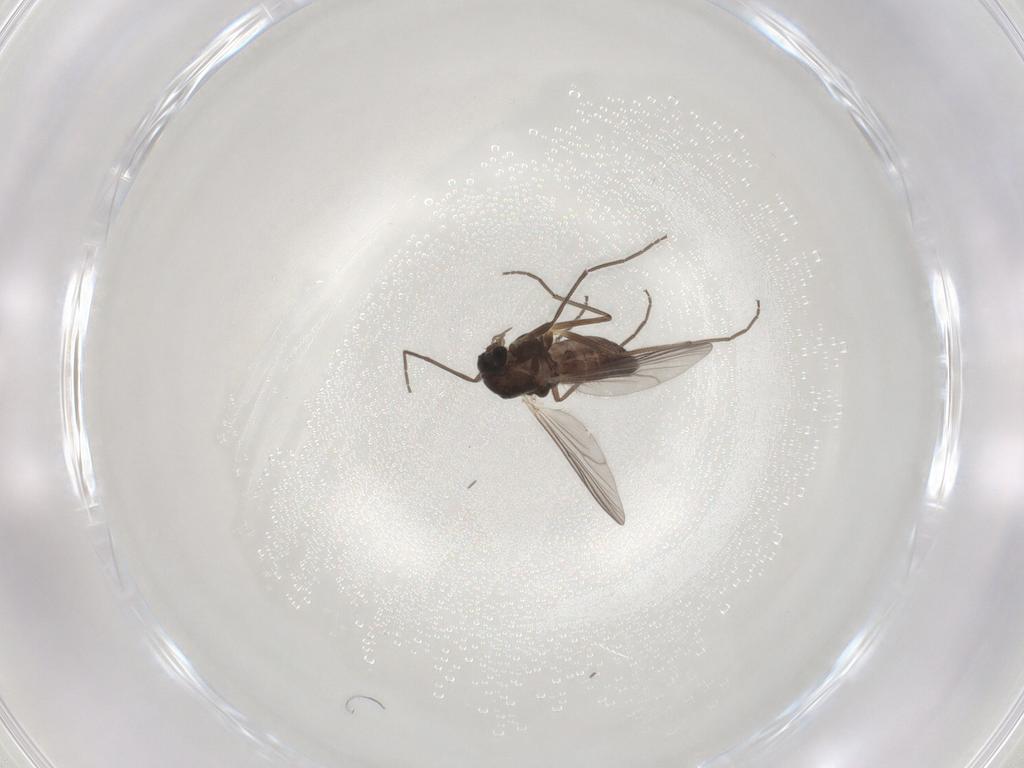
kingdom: Animalia
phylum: Arthropoda
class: Insecta
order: Diptera
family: Chironomidae
